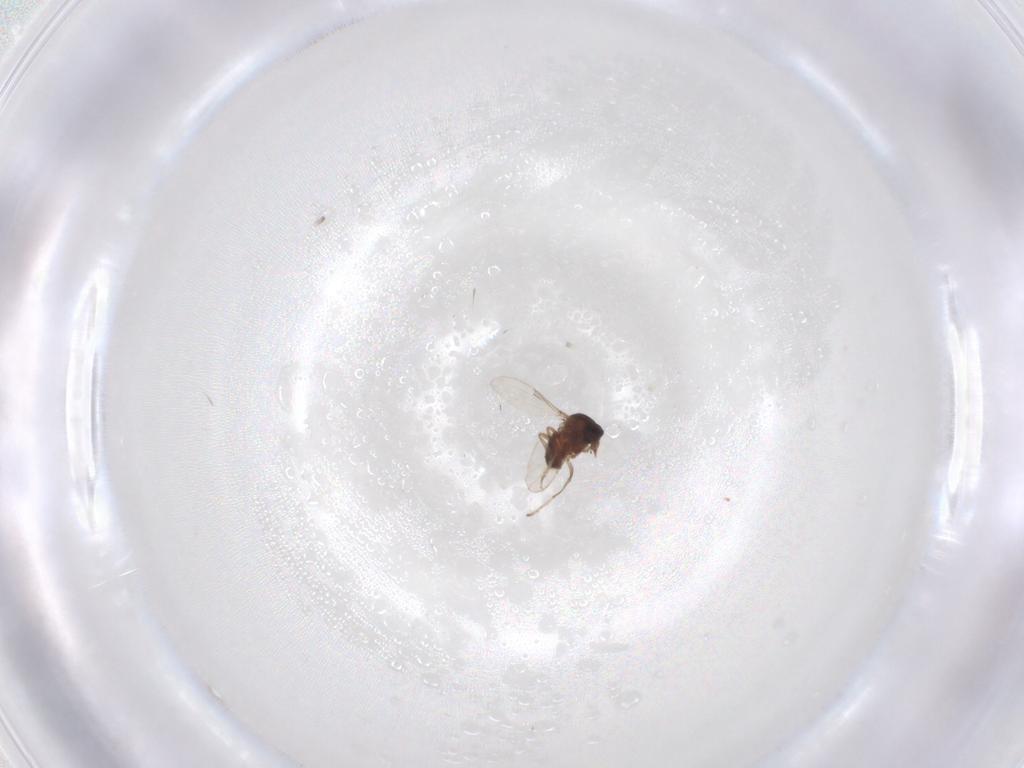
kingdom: Animalia
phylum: Arthropoda
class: Insecta
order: Diptera
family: Ceratopogonidae
